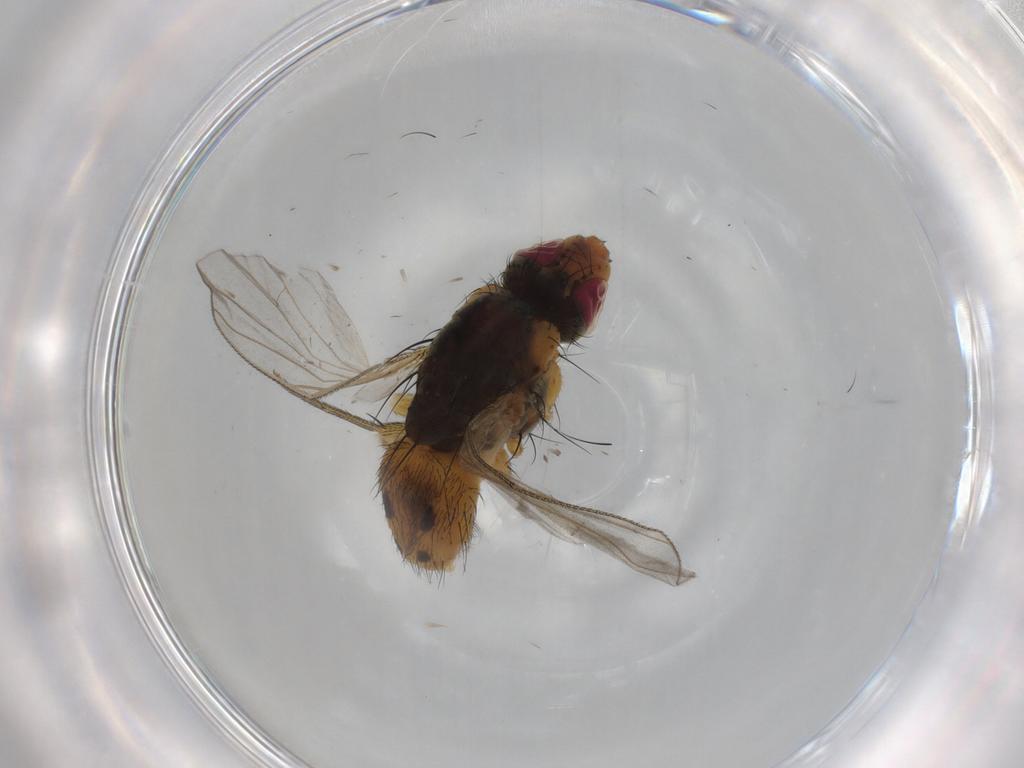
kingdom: Animalia
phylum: Arthropoda
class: Insecta
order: Diptera
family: Muscidae
